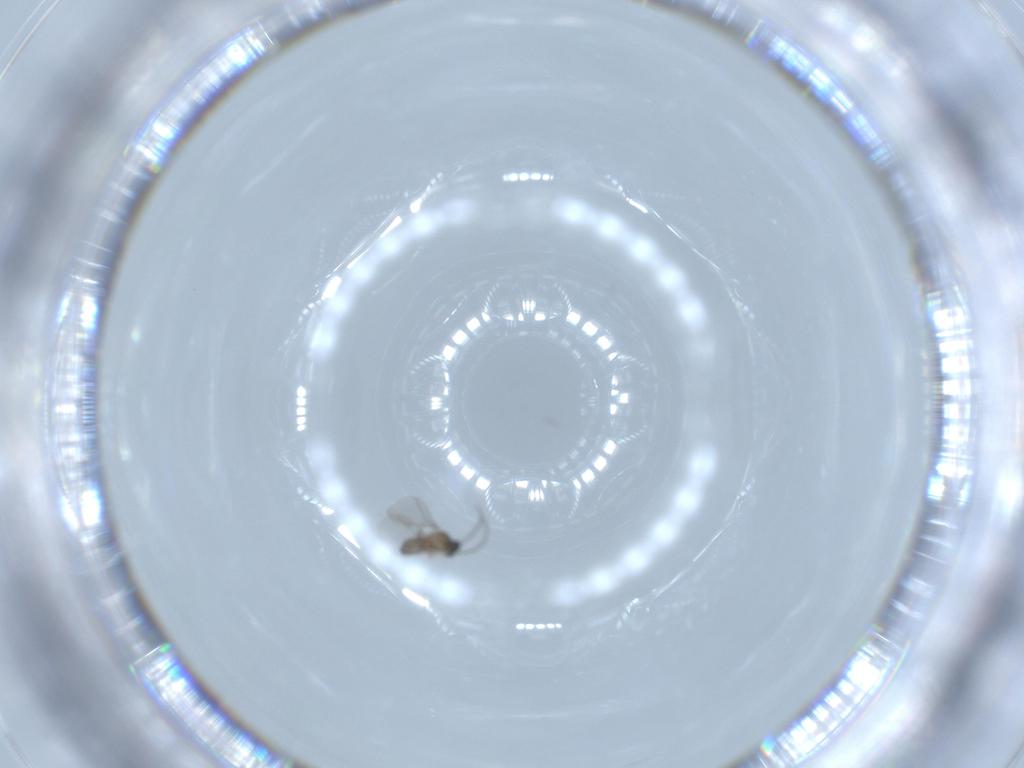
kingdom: Animalia
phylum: Arthropoda
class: Insecta
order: Diptera
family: Cecidomyiidae
